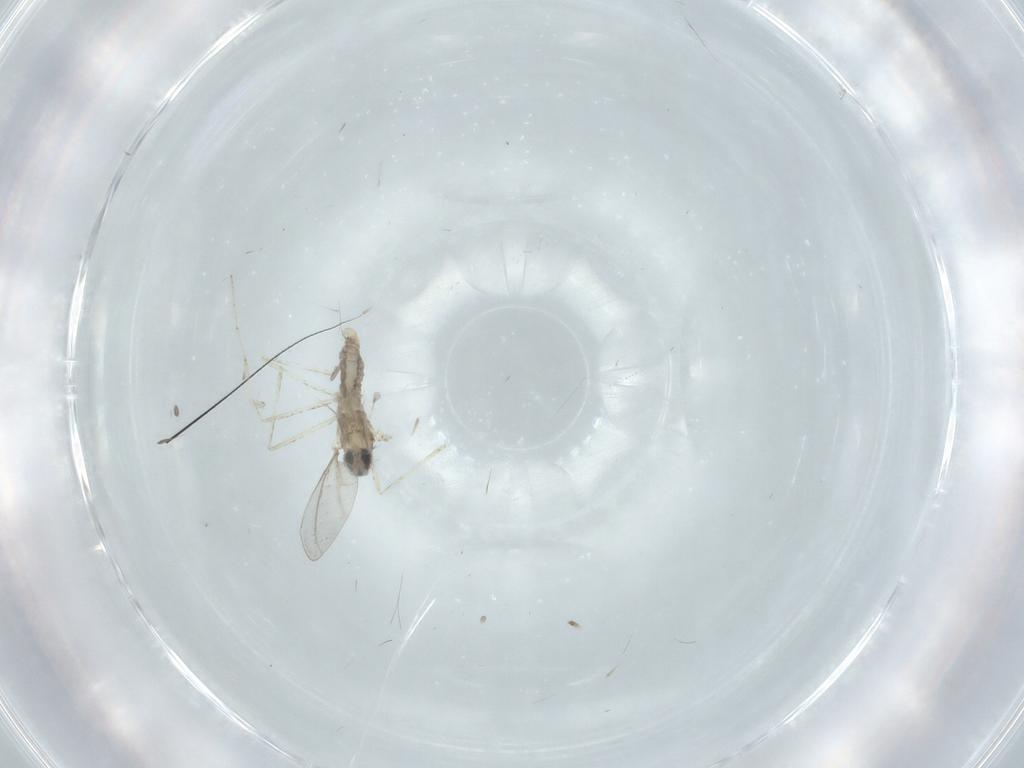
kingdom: Animalia
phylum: Arthropoda
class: Insecta
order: Diptera
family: Cecidomyiidae
